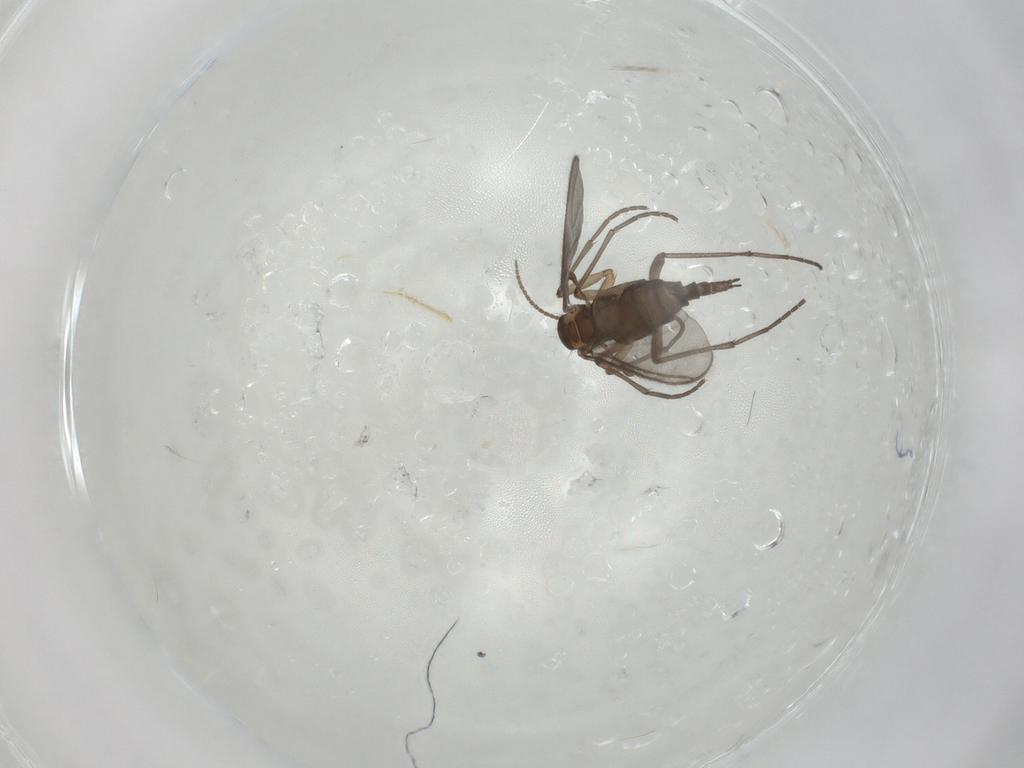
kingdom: Animalia
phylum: Arthropoda
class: Insecta
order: Diptera
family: Sciaridae
